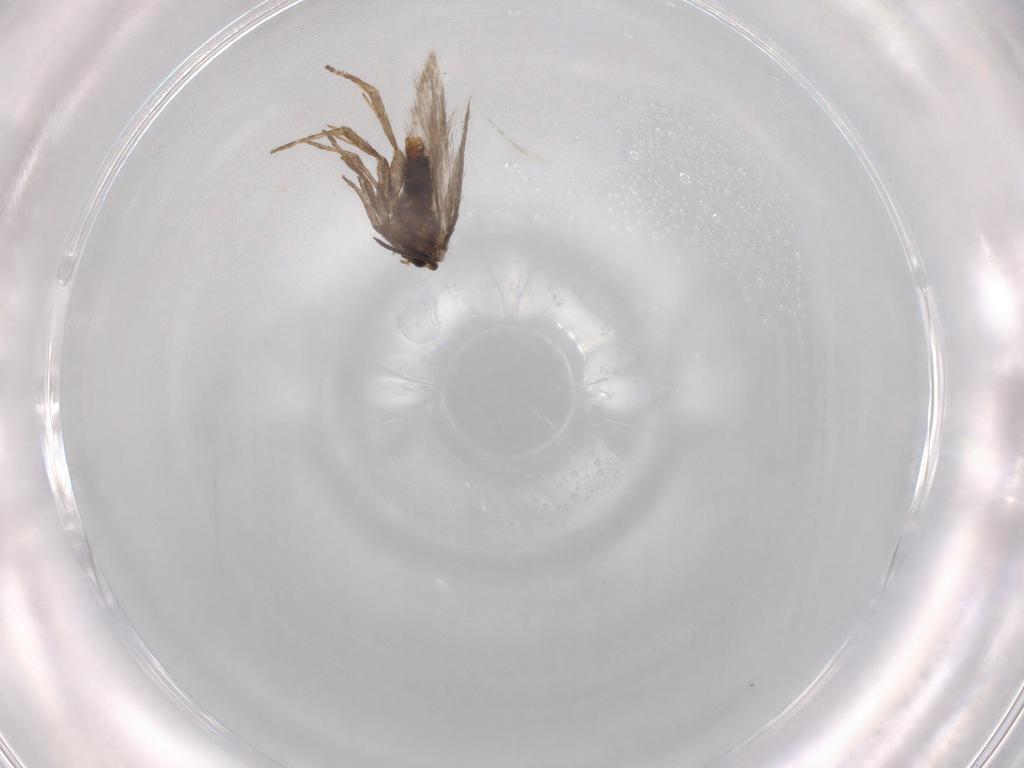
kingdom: Animalia
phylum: Arthropoda
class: Insecta
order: Lepidoptera
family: Nepticulidae
